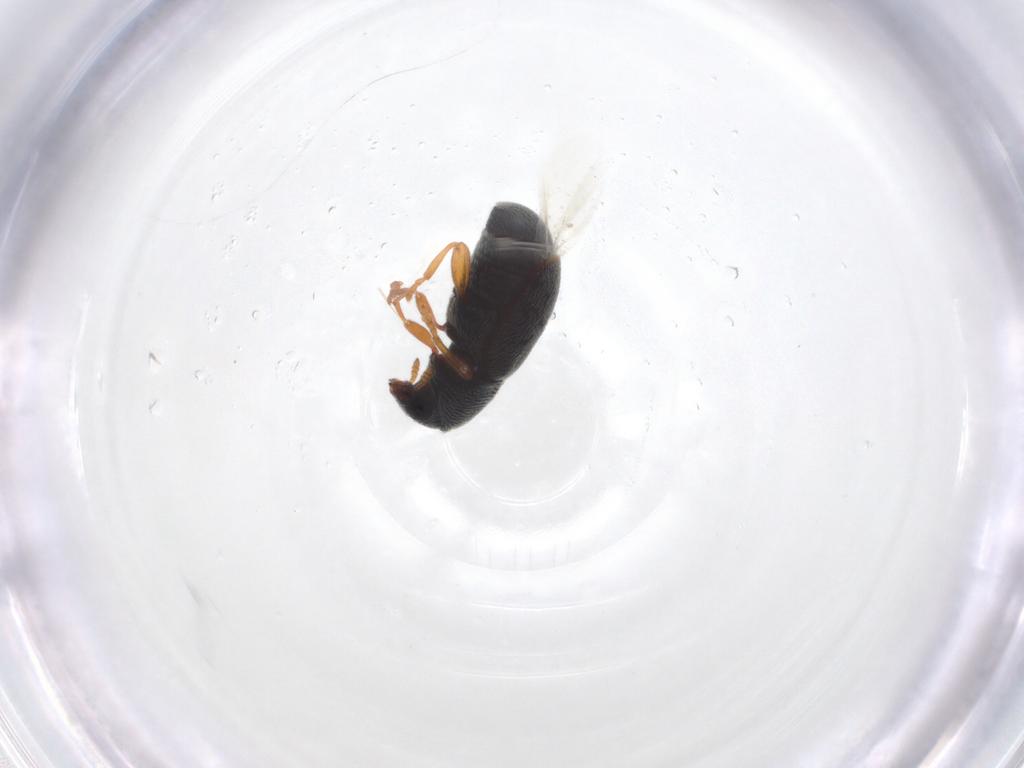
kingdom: Animalia
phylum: Arthropoda
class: Insecta
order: Coleoptera
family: Anthribidae
